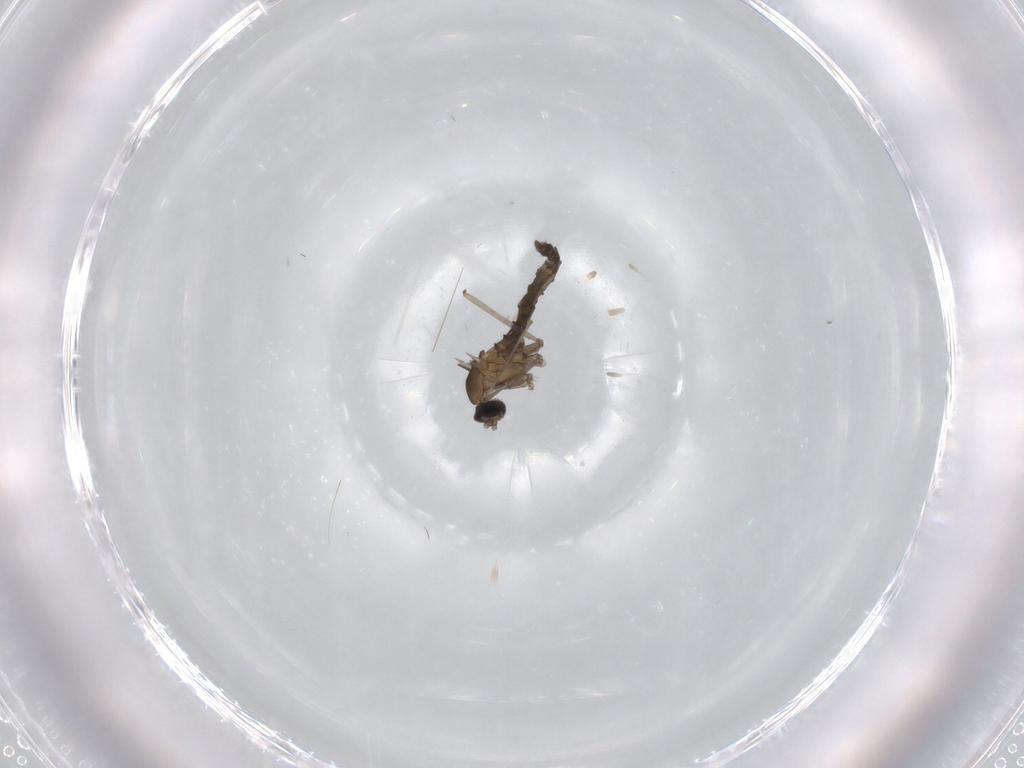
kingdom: Animalia
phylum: Arthropoda
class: Insecta
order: Diptera
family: Cecidomyiidae
